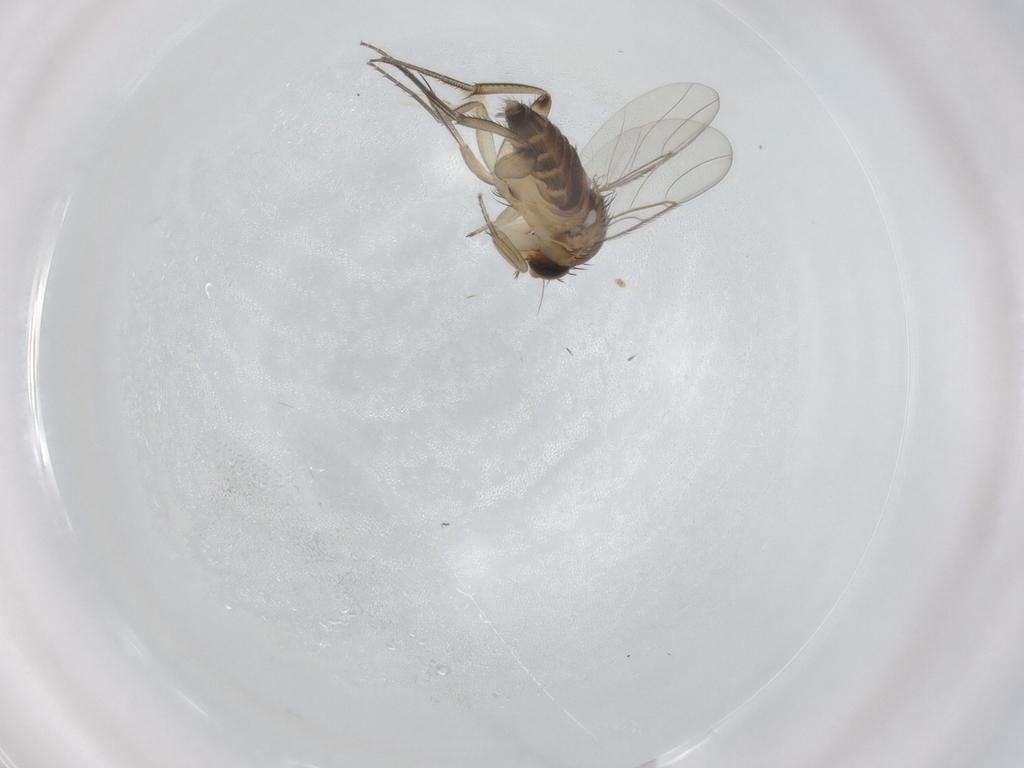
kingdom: Animalia
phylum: Arthropoda
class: Insecta
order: Diptera
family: Phoridae
